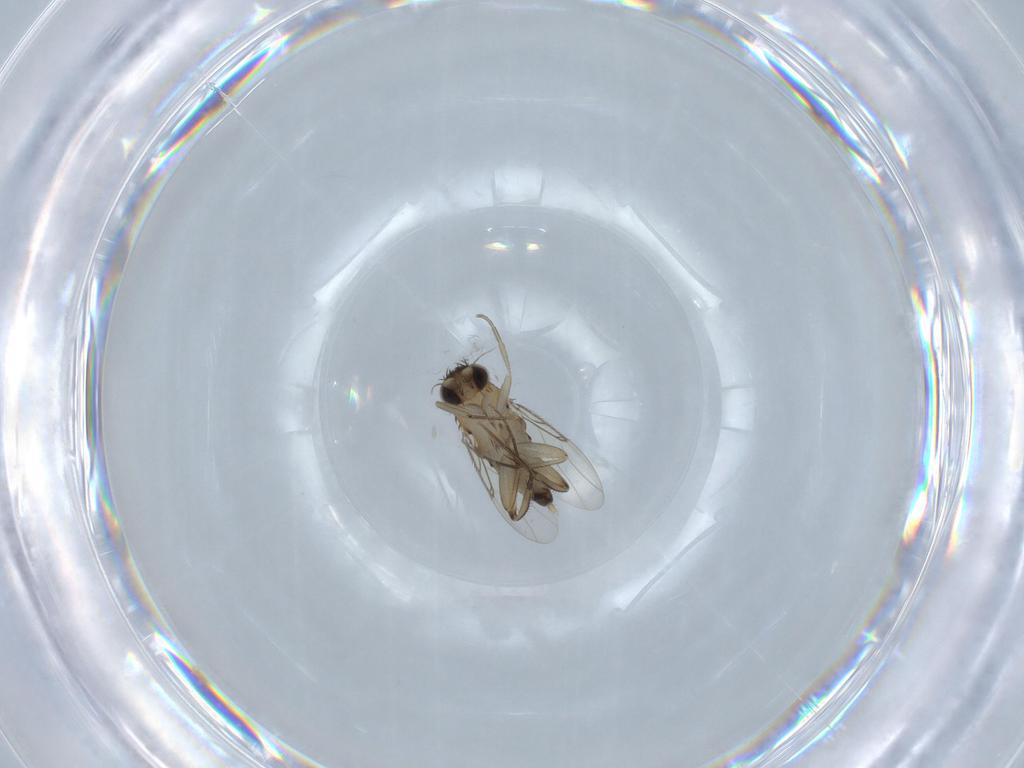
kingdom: Animalia
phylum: Arthropoda
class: Insecta
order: Diptera
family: Phoridae
